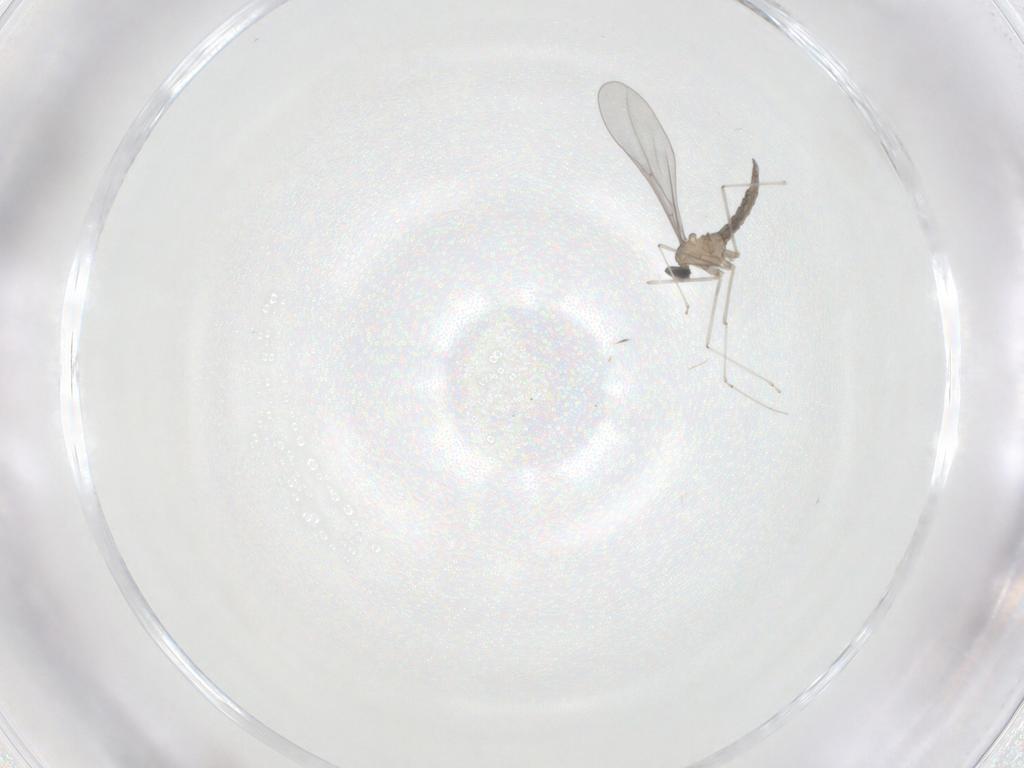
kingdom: Animalia
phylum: Arthropoda
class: Insecta
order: Diptera
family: Cecidomyiidae
